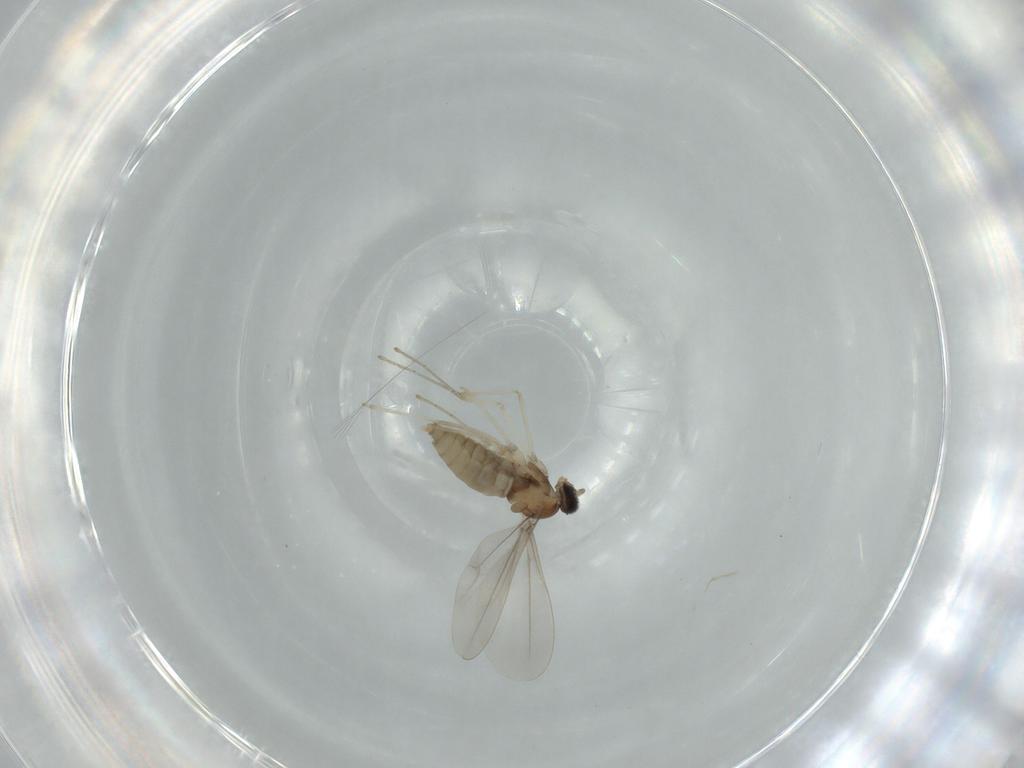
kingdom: Animalia
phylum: Arthropoda
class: Insecta
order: Diptera
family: Cecidomyiidae
